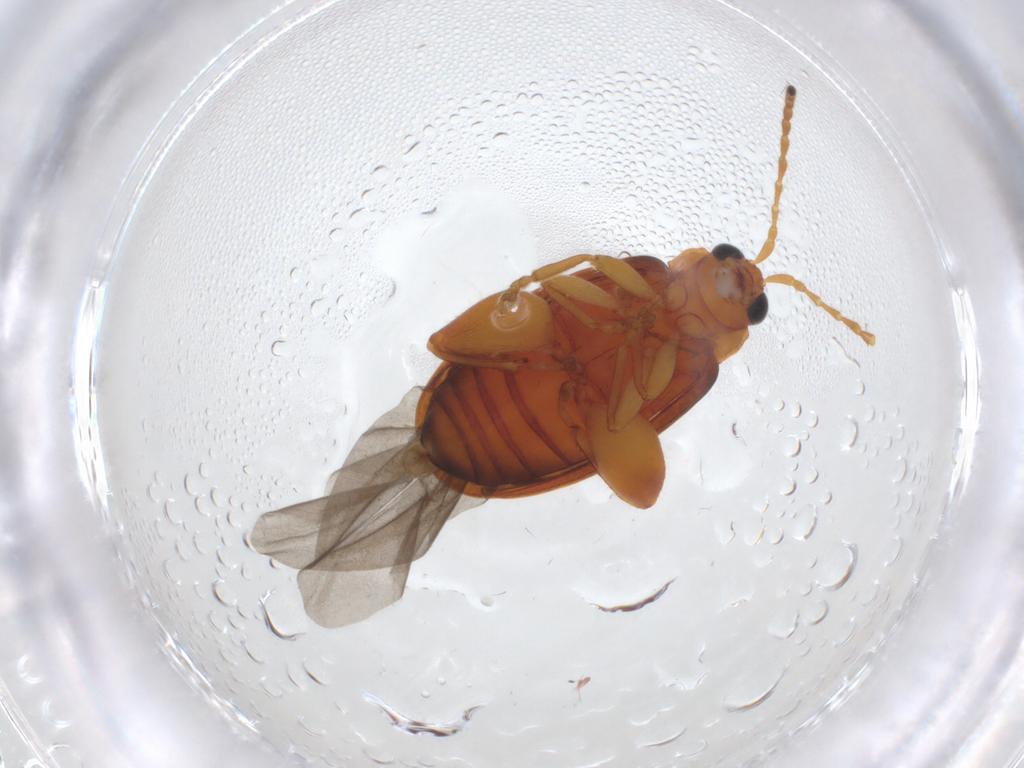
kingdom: Animalia
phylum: Arthropoda
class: Insecta
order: Coleoptera
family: Chrysomelidae
